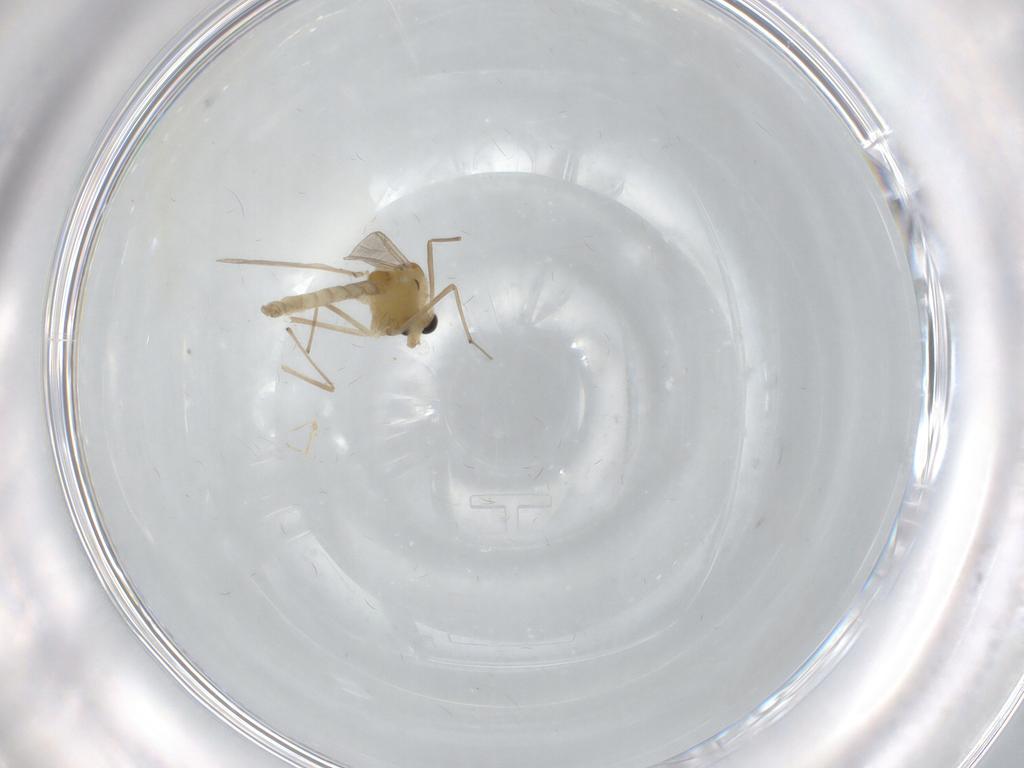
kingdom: Animalia
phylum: Arthropoda
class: Insecta
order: Diptera
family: Chironomidae
